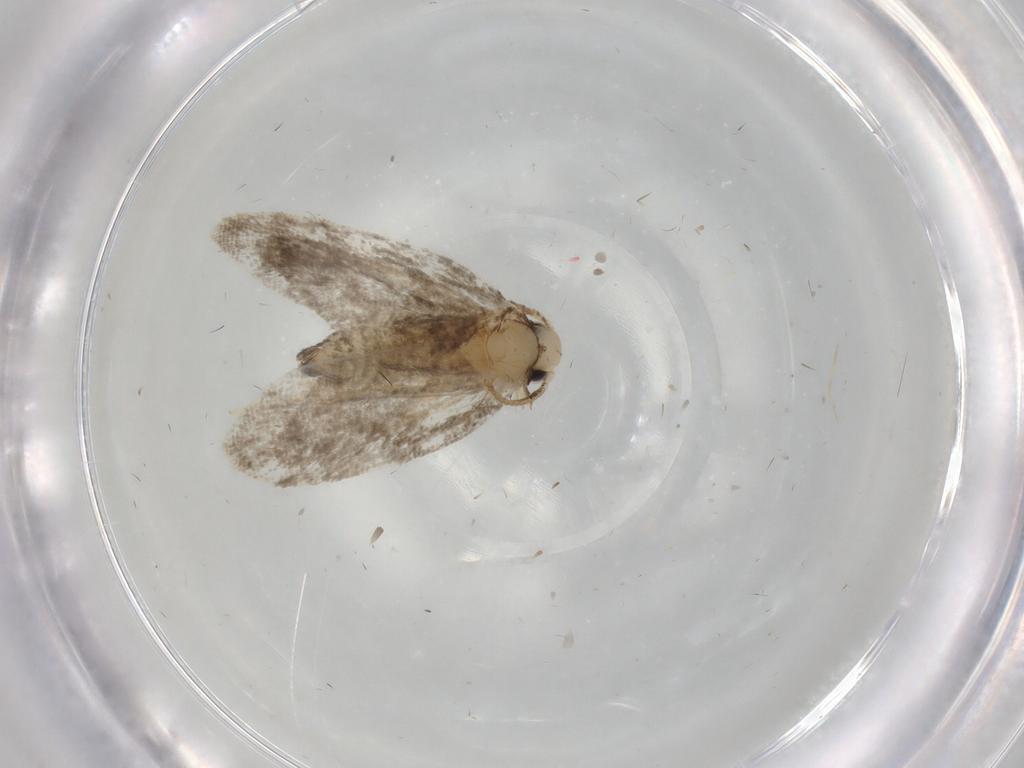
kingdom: Animalia
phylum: Arthropoda
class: Insecta
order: Lepidoptera
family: Psychidae
